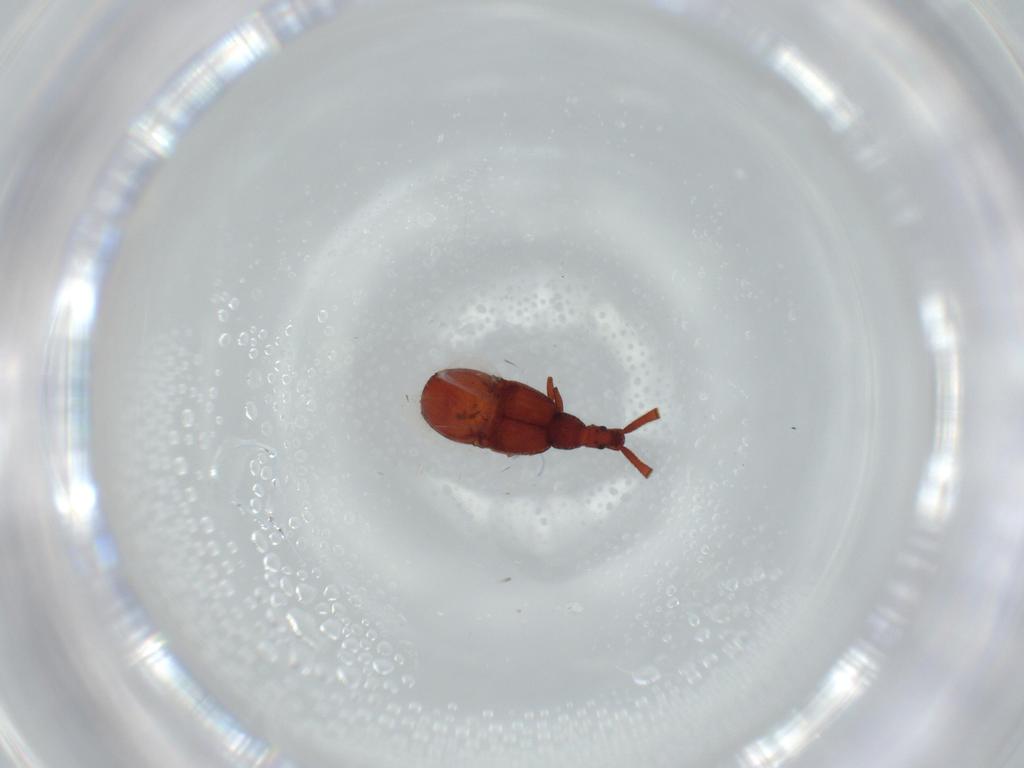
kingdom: Animalia
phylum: Arthropoda
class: Insecta
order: Coleoptera
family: Staphylinidae
